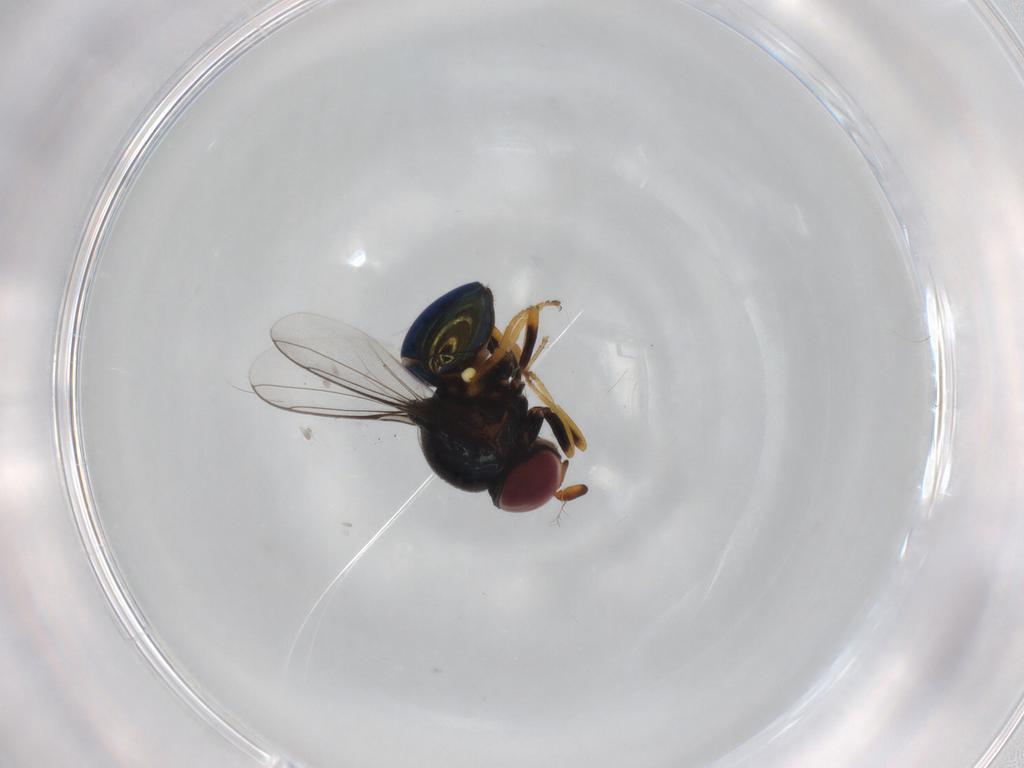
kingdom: Animalia
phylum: Arthropoda
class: Insecta
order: Diptera
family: Chloropidae
